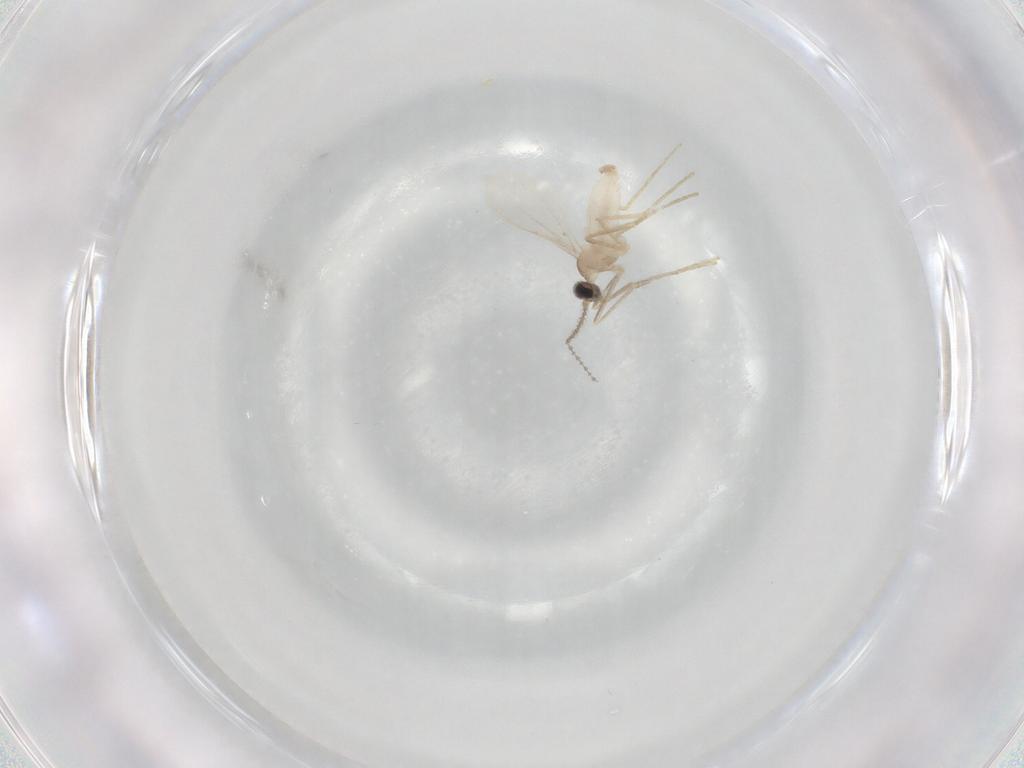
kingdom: Animalia
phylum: Arthropoda
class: Insecta
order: Diptera
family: Cecidomyiidae
